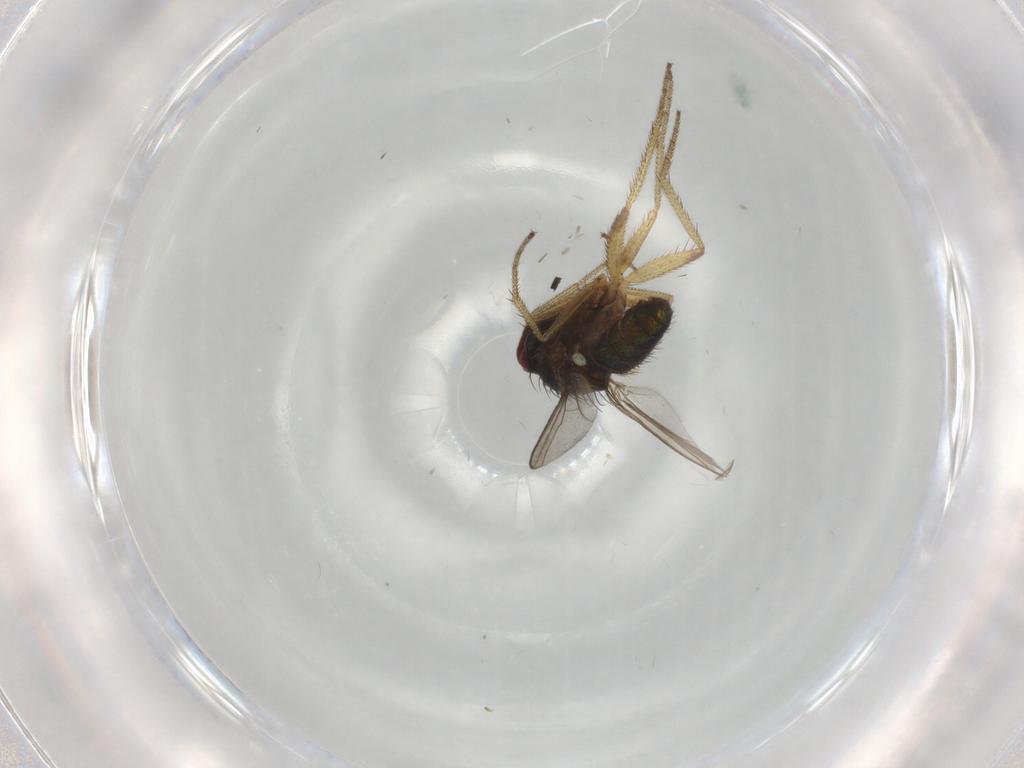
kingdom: Animalia
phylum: Arthropoda
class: Insecta
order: Diptera
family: Dolichopodidae
